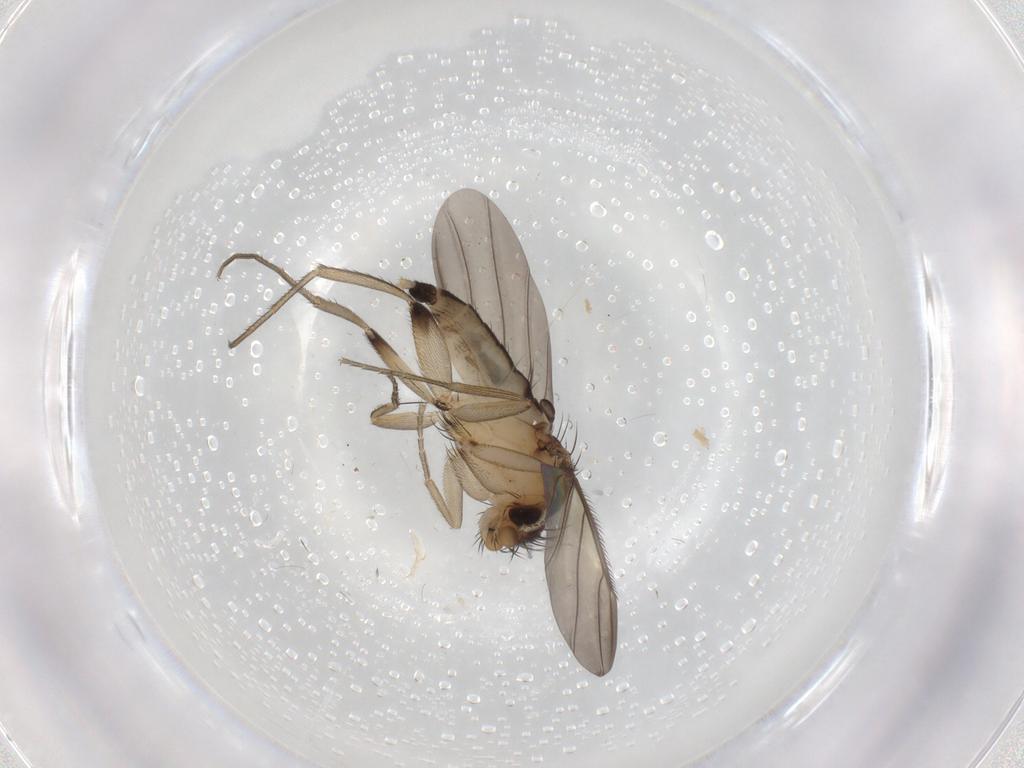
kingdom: Animalia
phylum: Arthropoda
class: Insecta
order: Diptera
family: Phoridae
